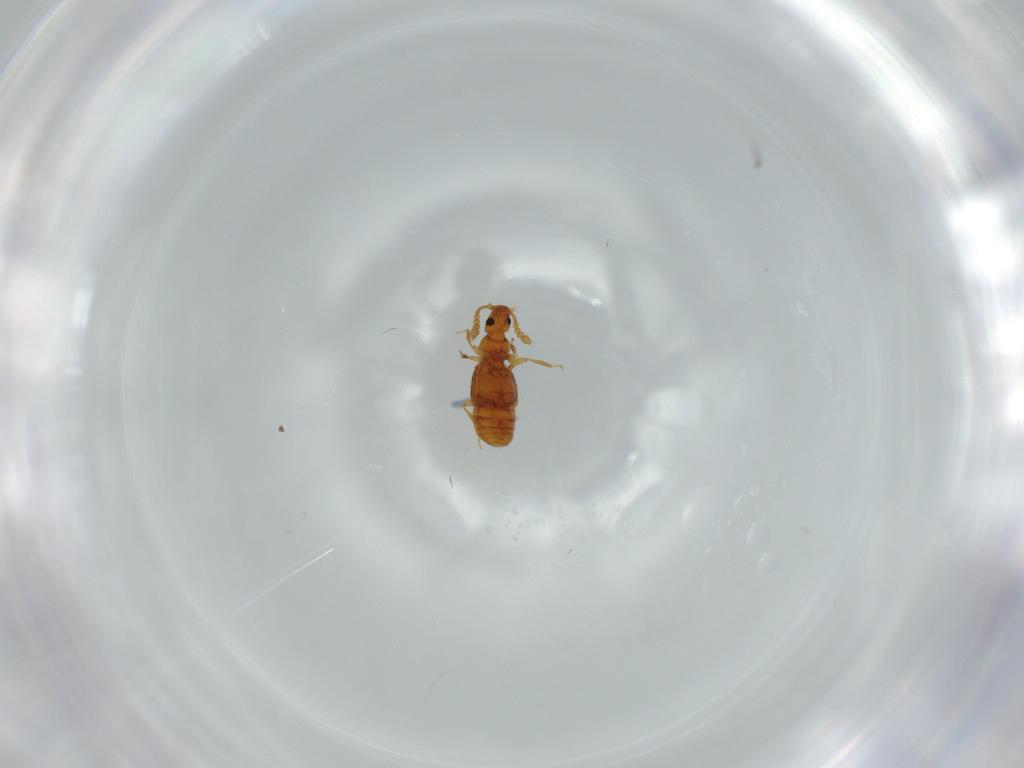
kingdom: Animalia
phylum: Arthropoda
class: Insecta
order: Coleoptera
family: Staphylinidae
